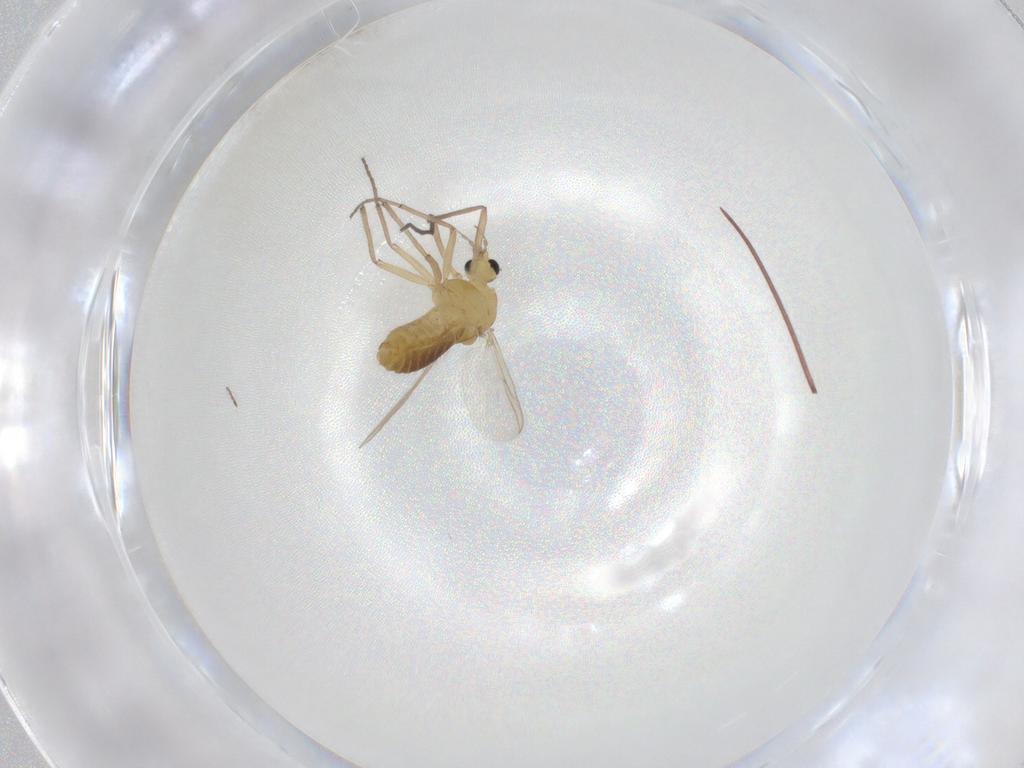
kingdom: Animalia
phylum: Arthropoda
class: Insecta
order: Diptera
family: Chironomidae
